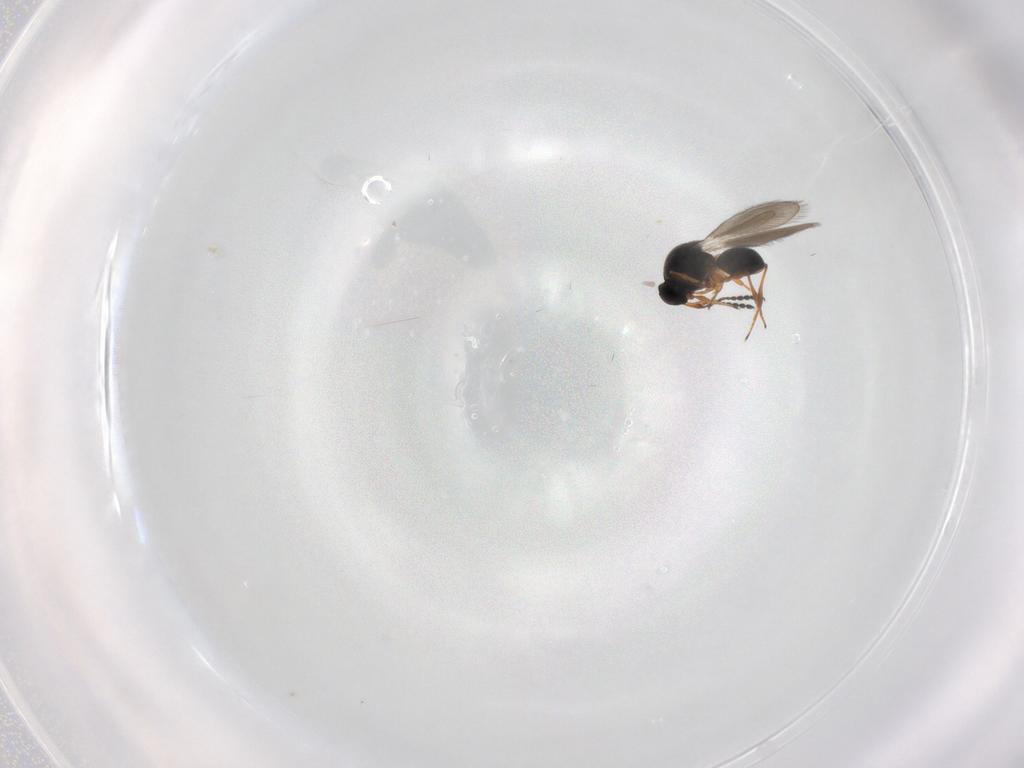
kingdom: Animalia
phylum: Arthropoda
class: Insecta
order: Hymenoptera
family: Platygastridae
